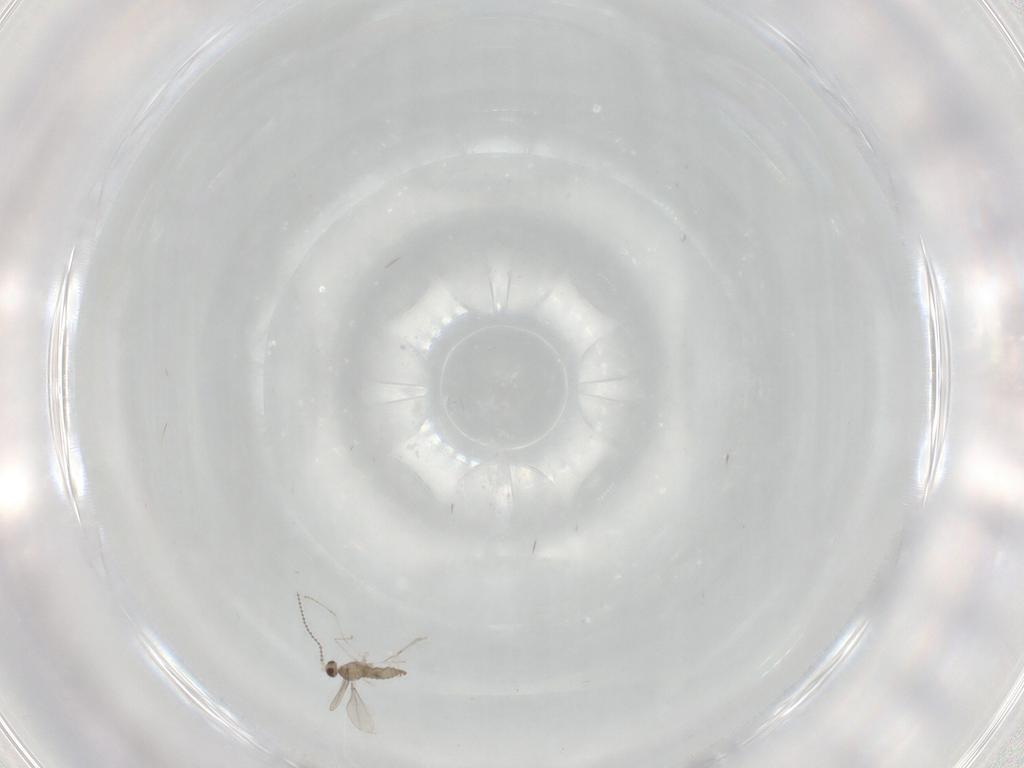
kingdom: Animalia
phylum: Arthropoda
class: Insecta
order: Diptera
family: Cecidomyiidae
